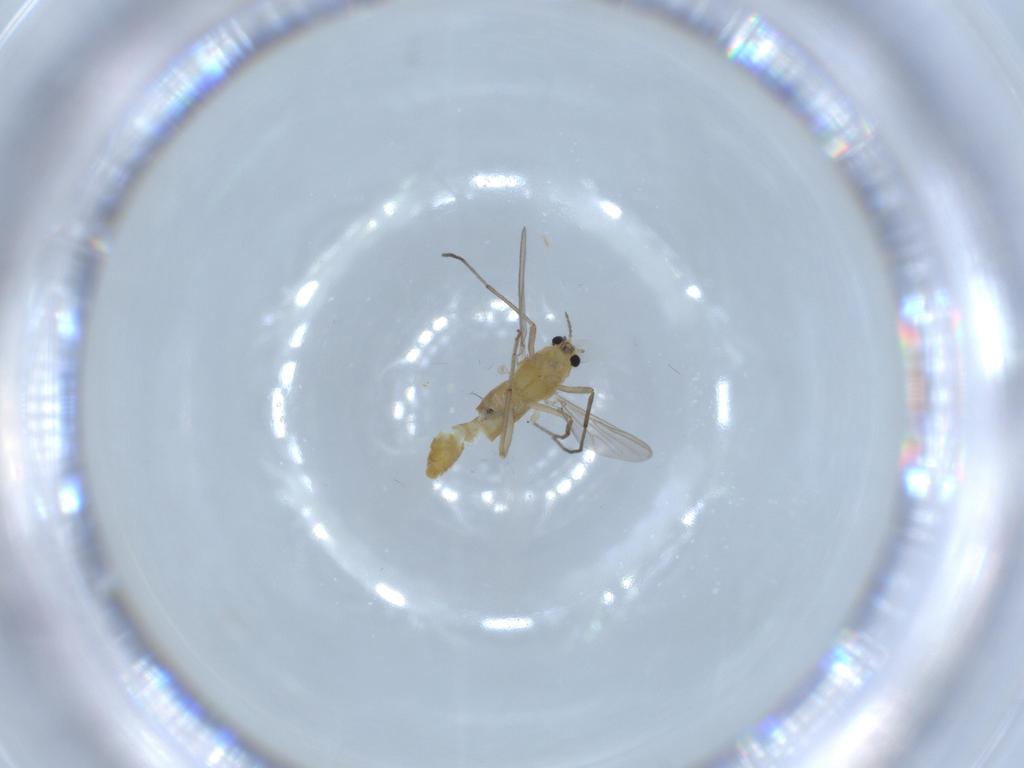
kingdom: Animalia
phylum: Arthropoda
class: Insecta
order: Diptera
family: Chironomidae
